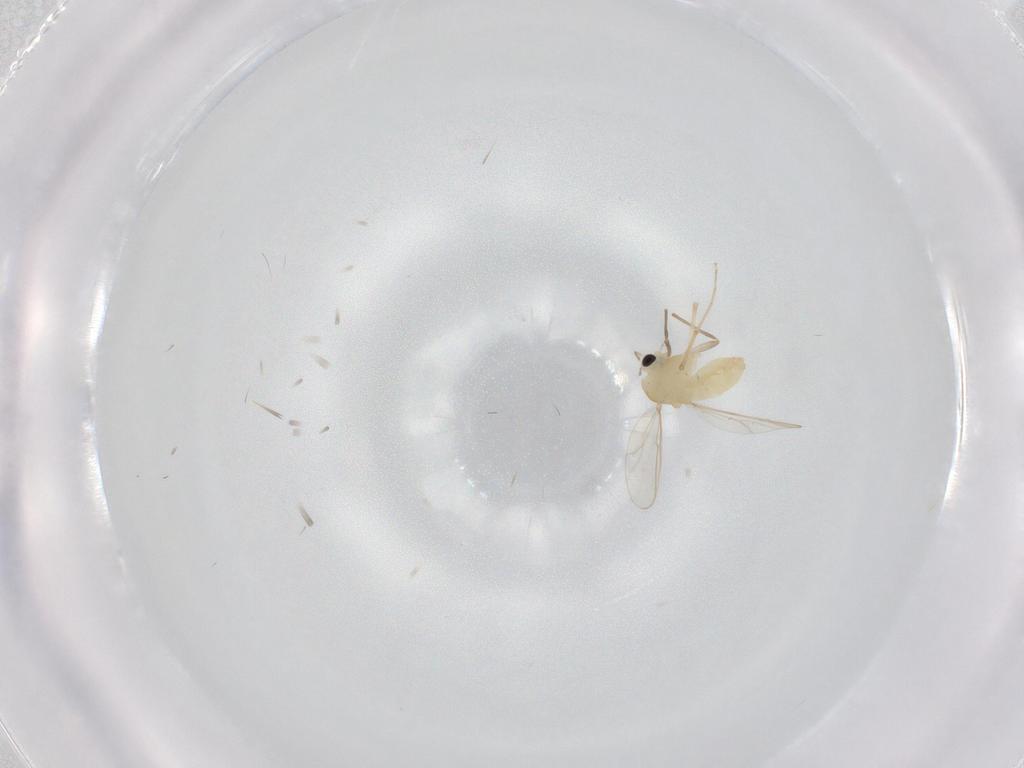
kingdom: Animalia
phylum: Arthropoda
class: Insecta
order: Diptera
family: Chironomidae
